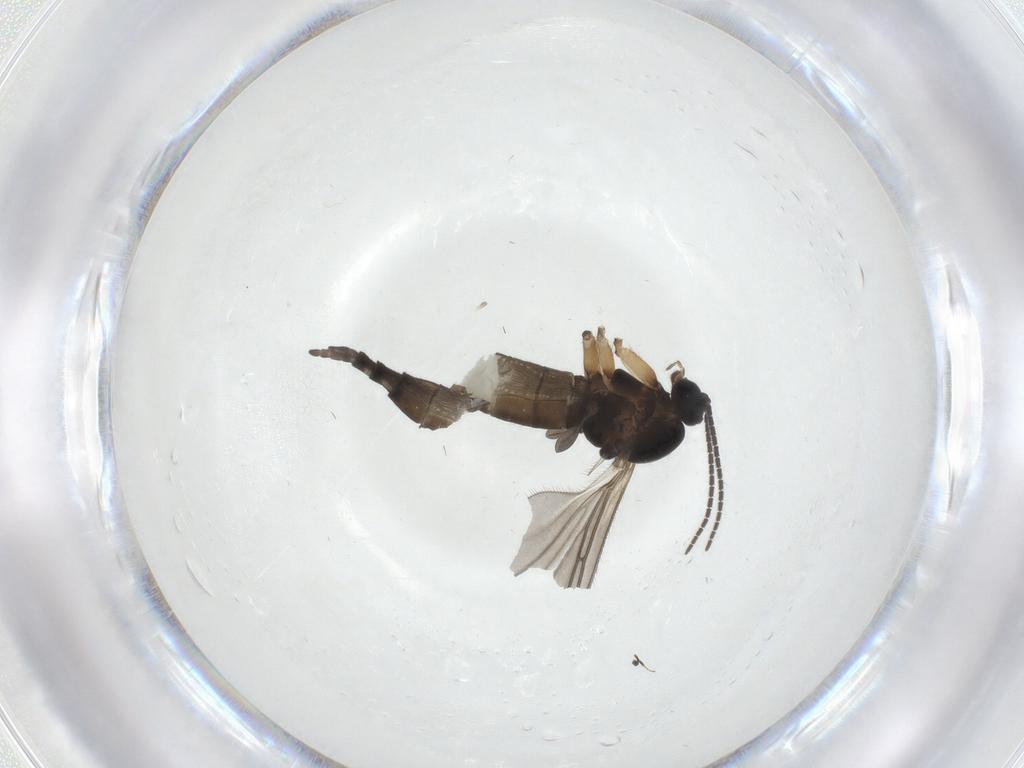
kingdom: Animalia
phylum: Arthropoda
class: Insecta
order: Diptera
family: Sciaridae
